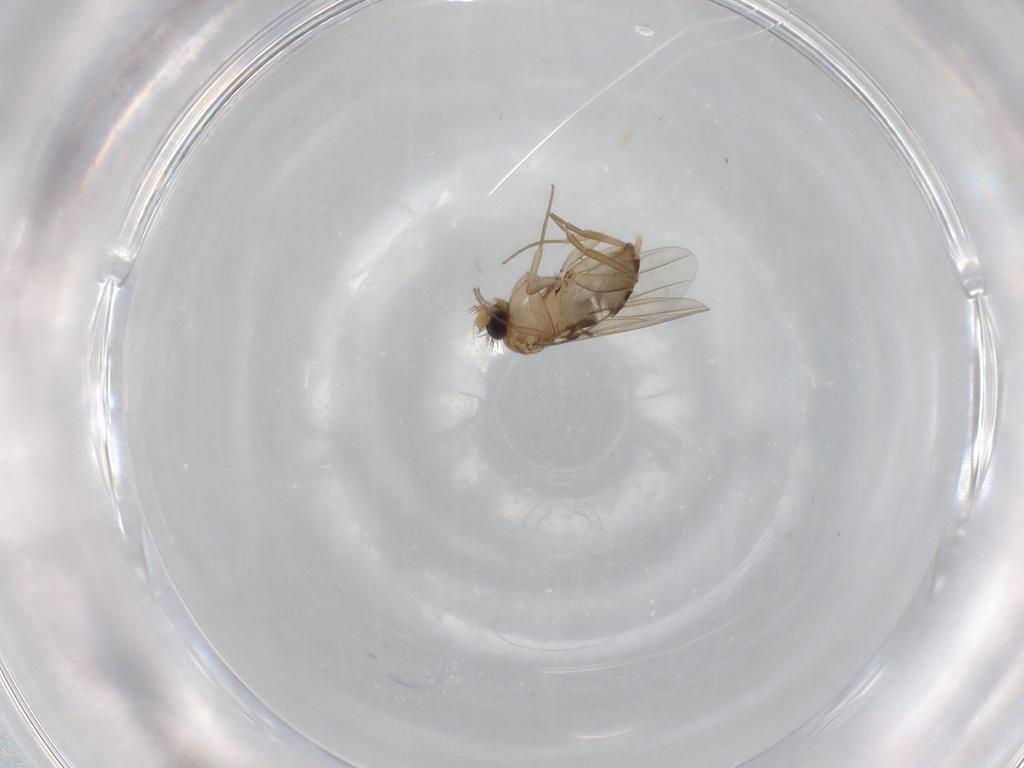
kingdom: Animalia
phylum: Arthropoda
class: Insecta
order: Diptera
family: Phoridae
